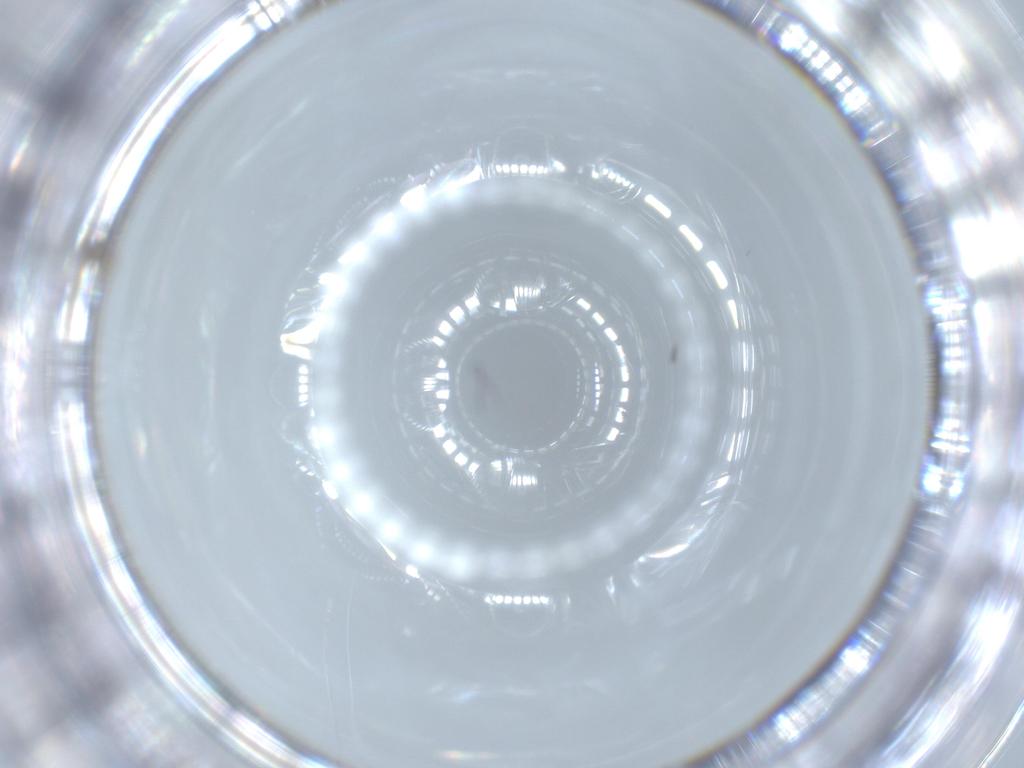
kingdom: Animalia
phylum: Arthropoda
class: Insecta
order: Diptera
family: Cecidomyiidae
